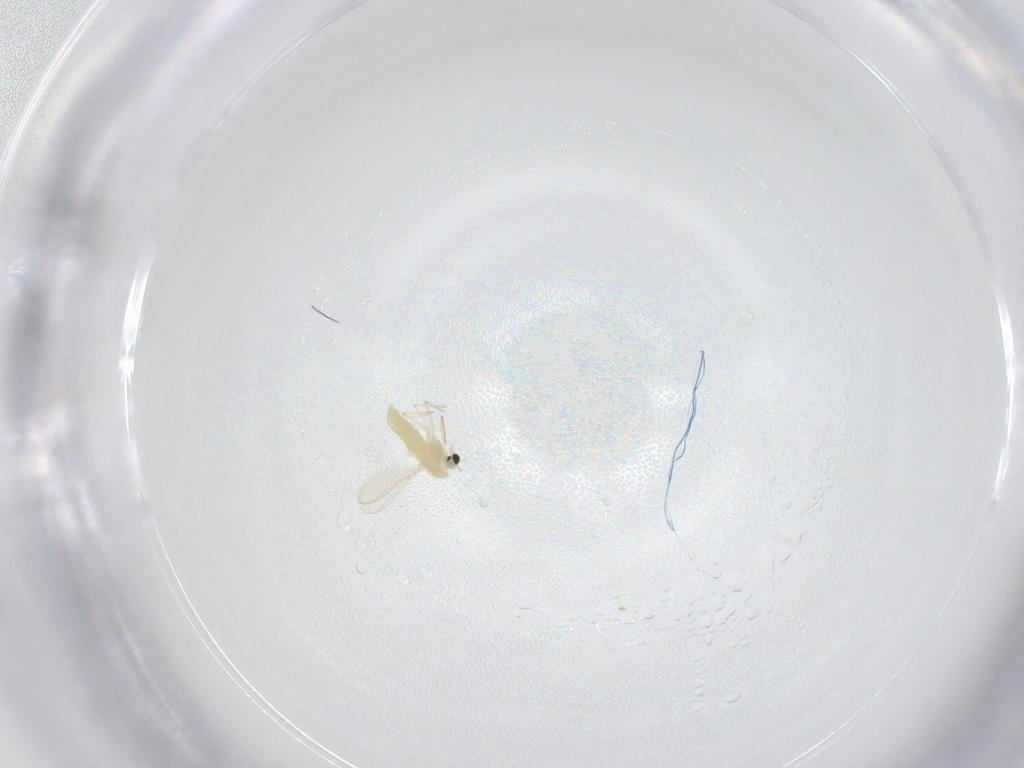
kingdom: Animalia
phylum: Arthropoda
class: Insecta
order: Diptera
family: Chironomidae
